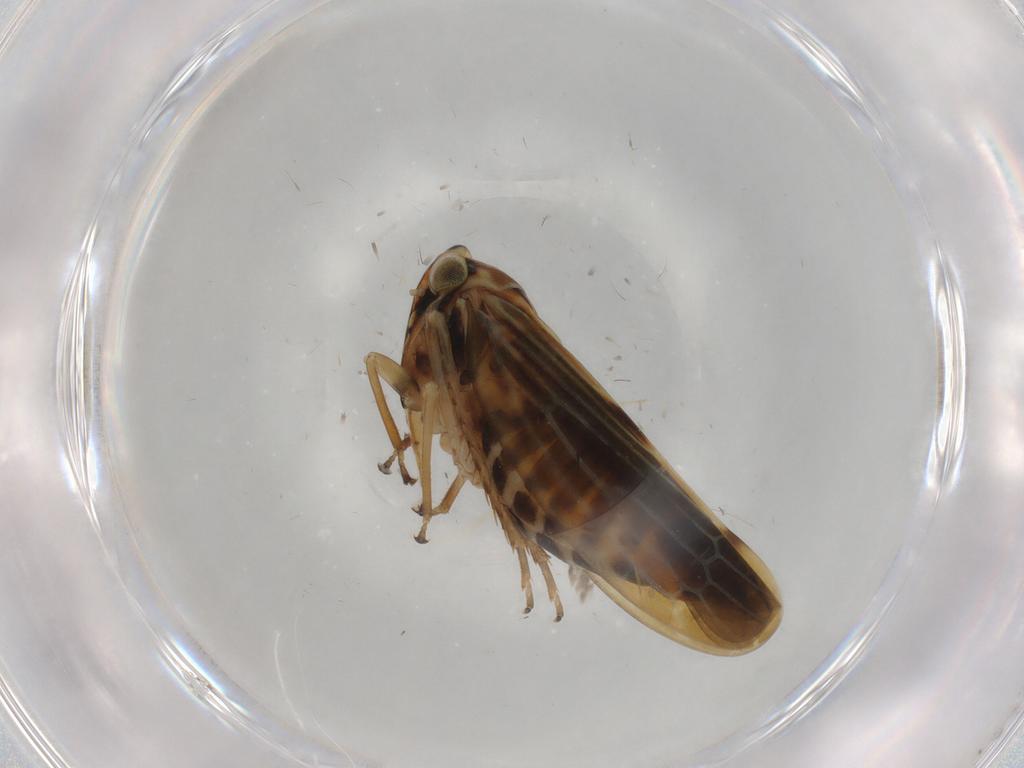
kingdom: Animalia
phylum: Arthropoda
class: Insecta
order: Hemiptera
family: Cicadellidae
